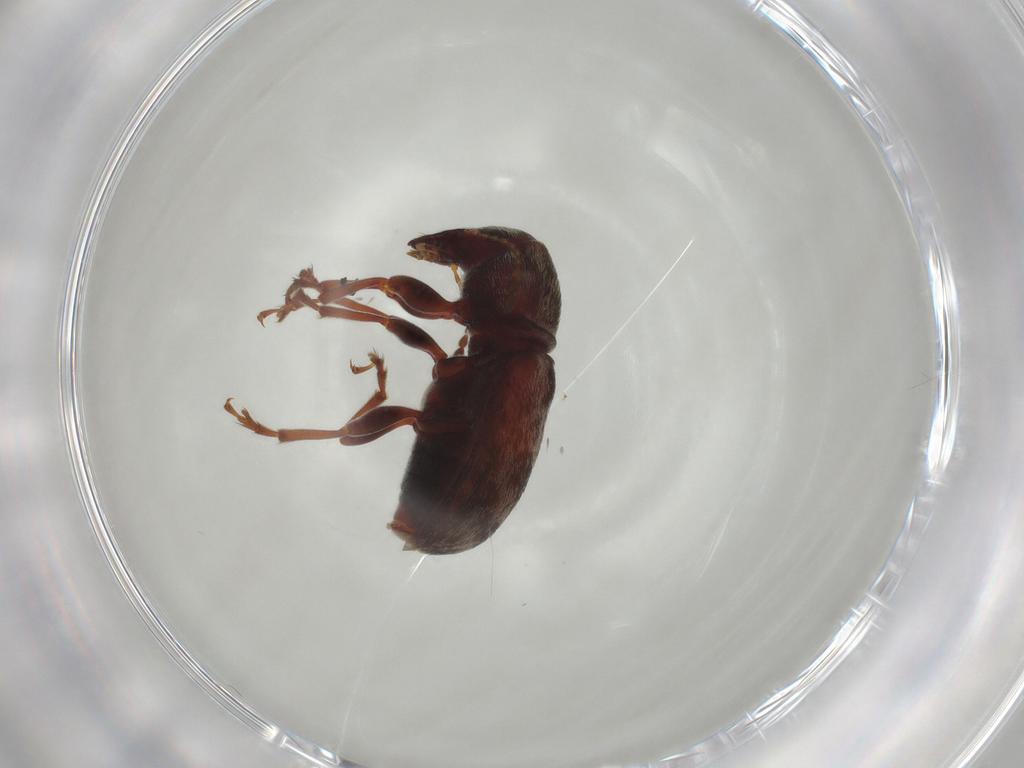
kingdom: Animalia
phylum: Arthropoda
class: Insecta
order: Coleoptera
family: Anthribidae
